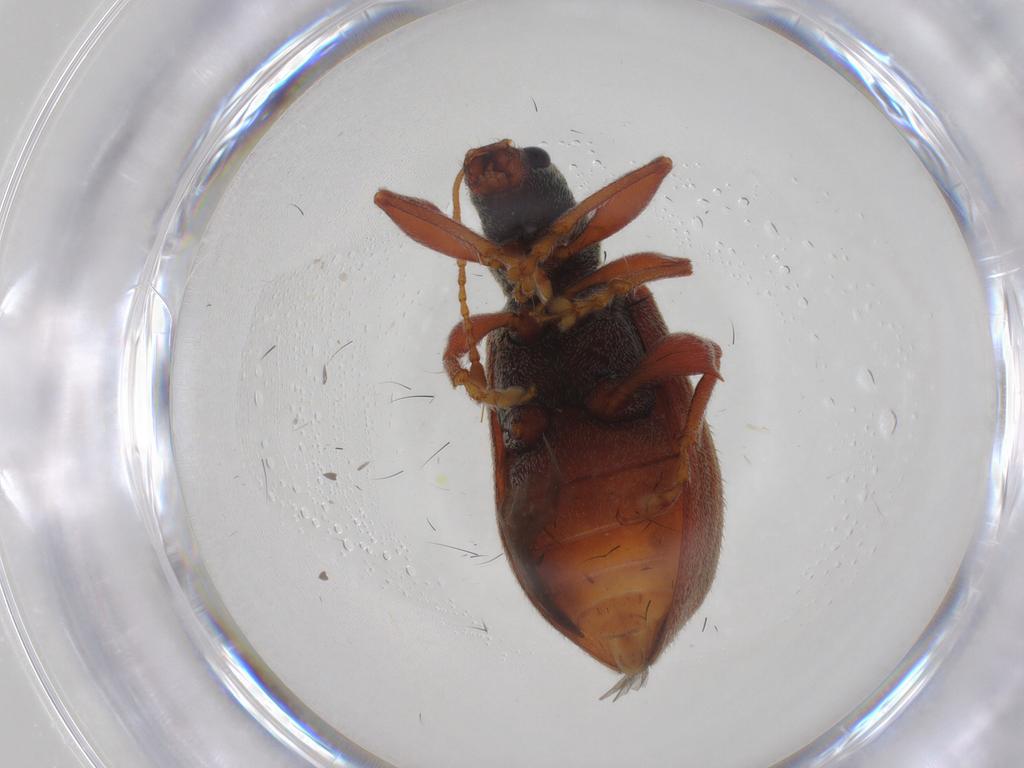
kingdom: Animalia
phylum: Arthropoda
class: Insecta
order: Coleoptera
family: Curculionidae
